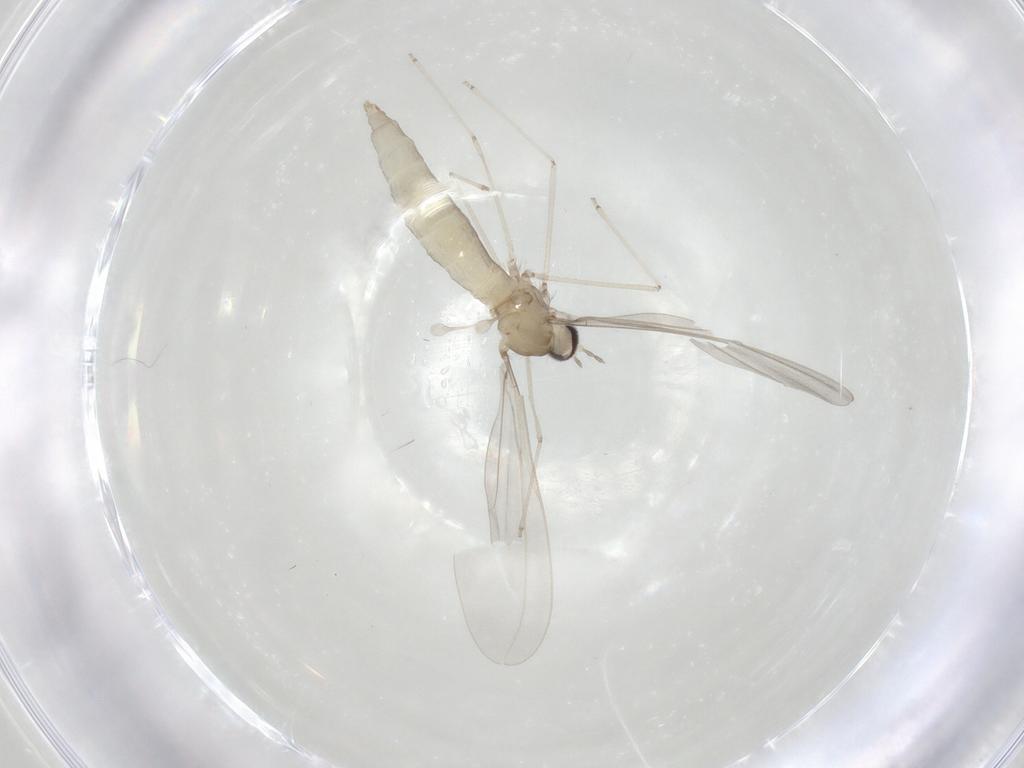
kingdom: Animalia
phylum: Arthropoda
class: Insecta
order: Diptera
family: Cecidomyiidae
